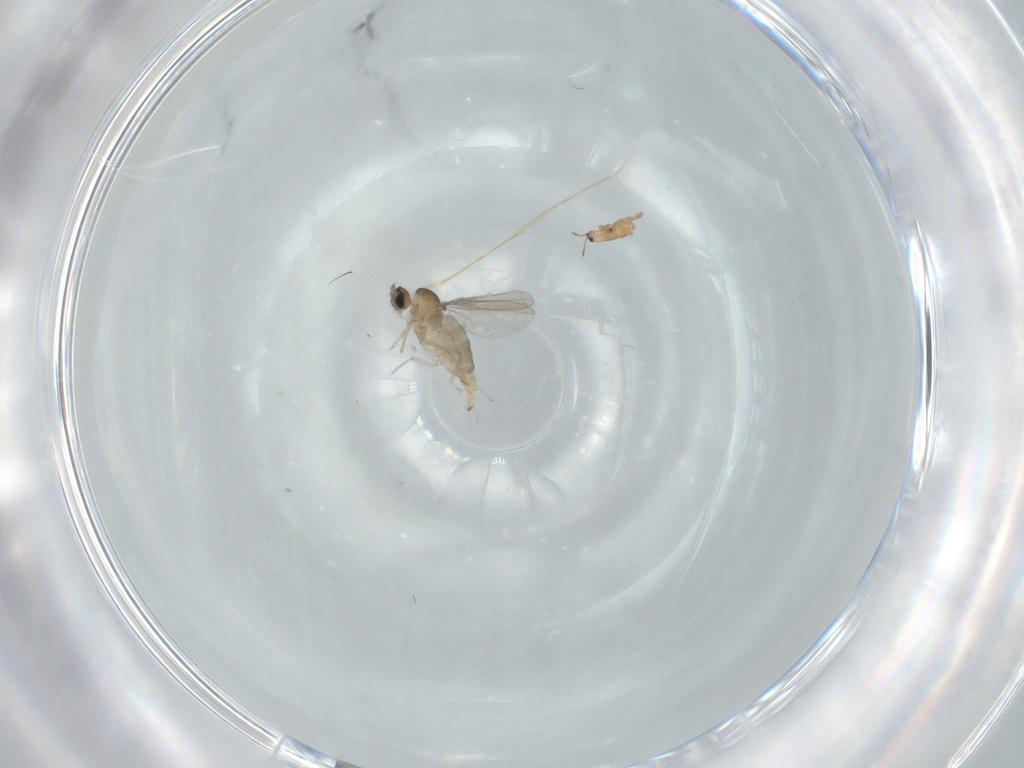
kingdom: Animalia
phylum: Arthropoda
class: Insecta
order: Diptera
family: Cecidomyiidae
